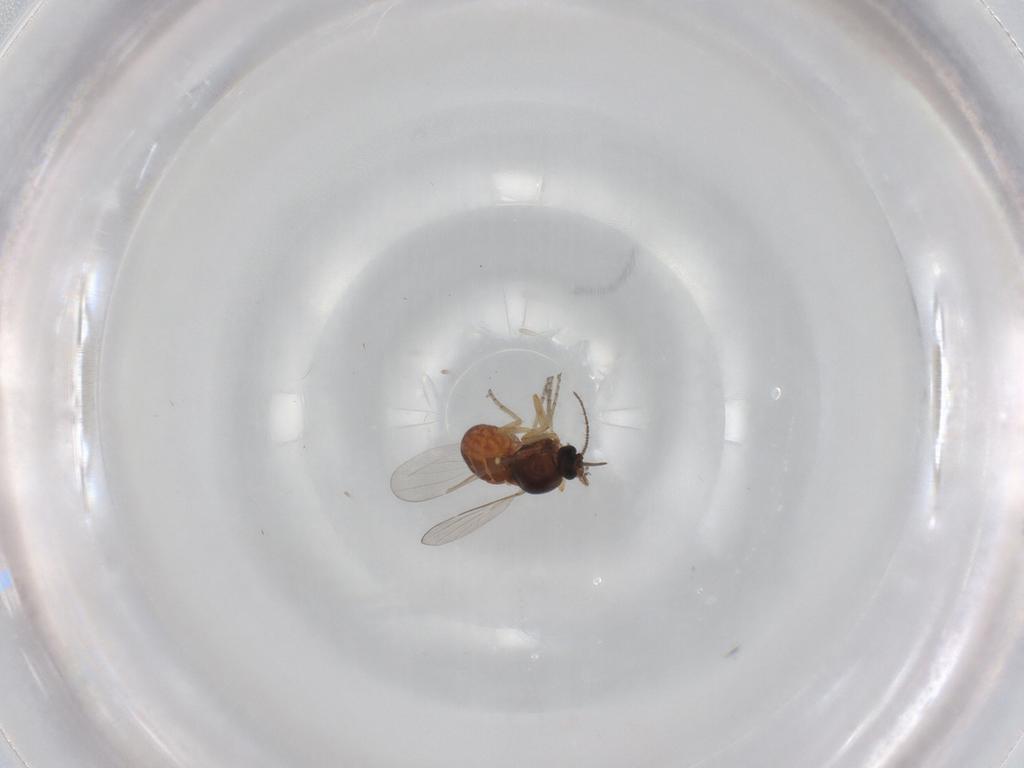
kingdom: Animalia
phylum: Arthropoda
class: Insecta
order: Diptera
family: Ceratopogonidae
